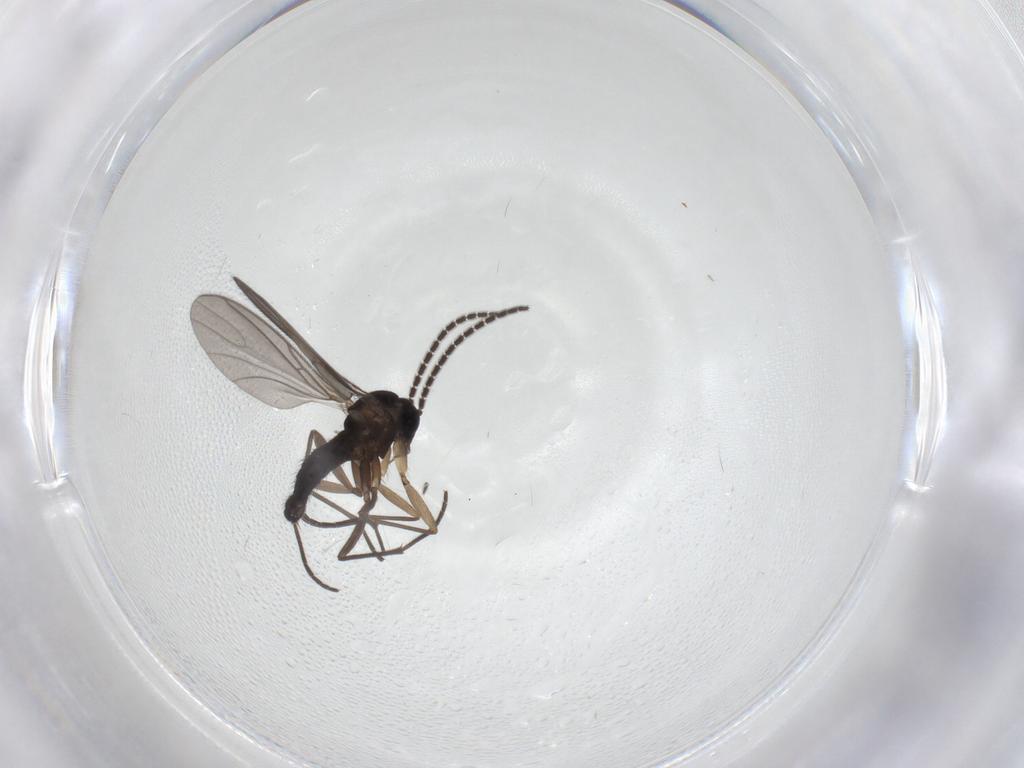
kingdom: Animalia
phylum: Arthropoda
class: Insecta
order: Diptera
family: Sciaridae
